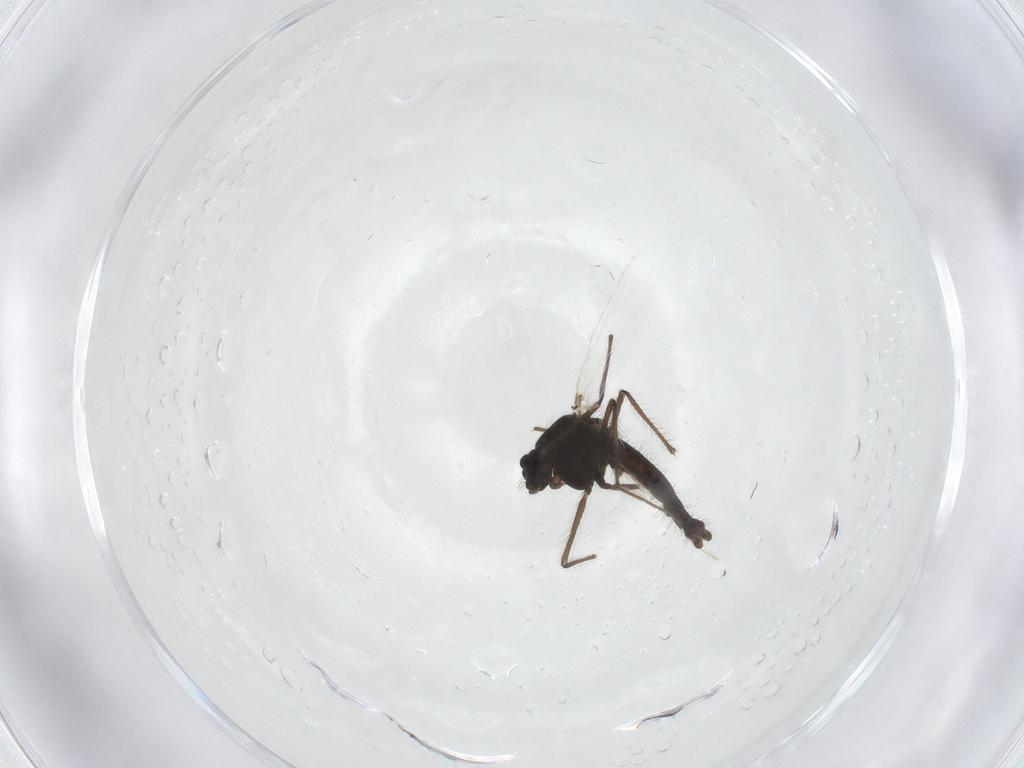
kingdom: Animalia
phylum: Arthropoda
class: Insecta
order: Diptera
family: Chironomidae
